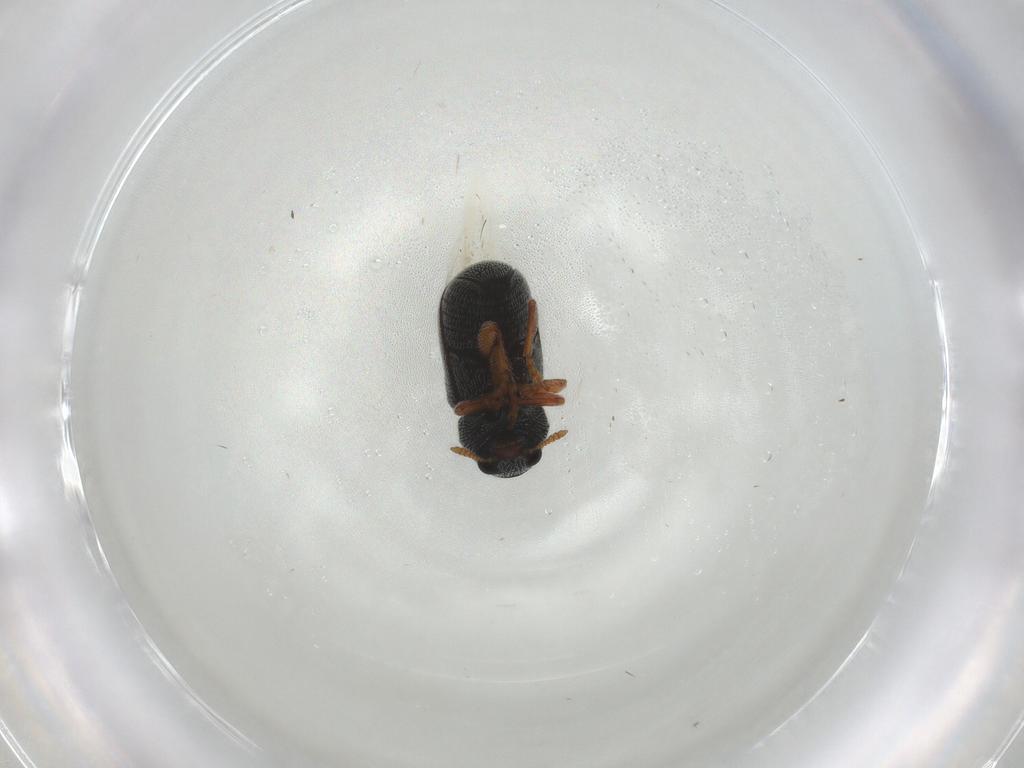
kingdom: Animalia
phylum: Arthropoda
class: Insecta
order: Coleoptera
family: Anthribidae
